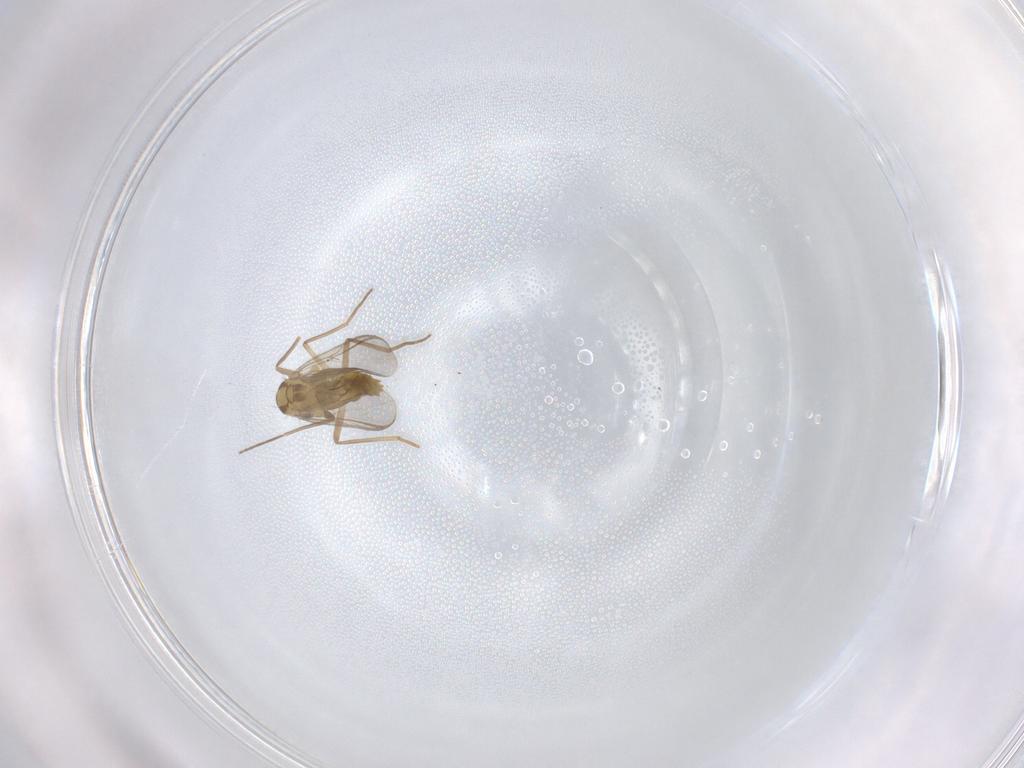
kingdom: Animalia
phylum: Arthropoda
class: Insecta
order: Diptera
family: Chironomidae
